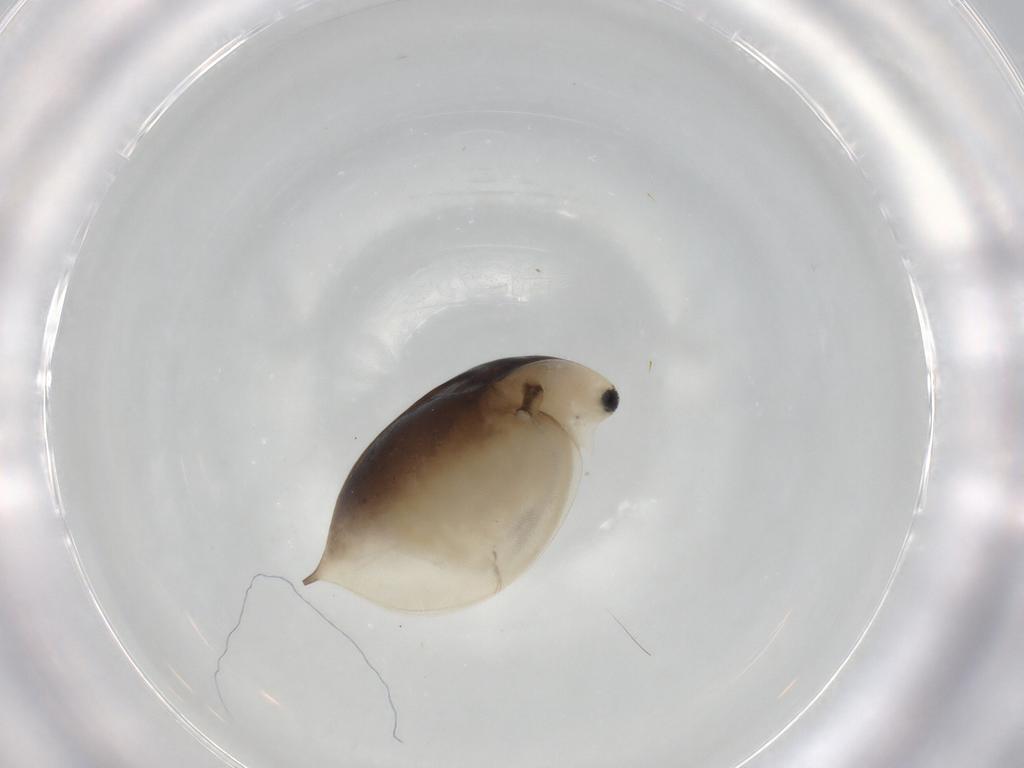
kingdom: Animalia
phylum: Arthropoda
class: Branchiopoda
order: Diplostraca
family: Daphniidae
